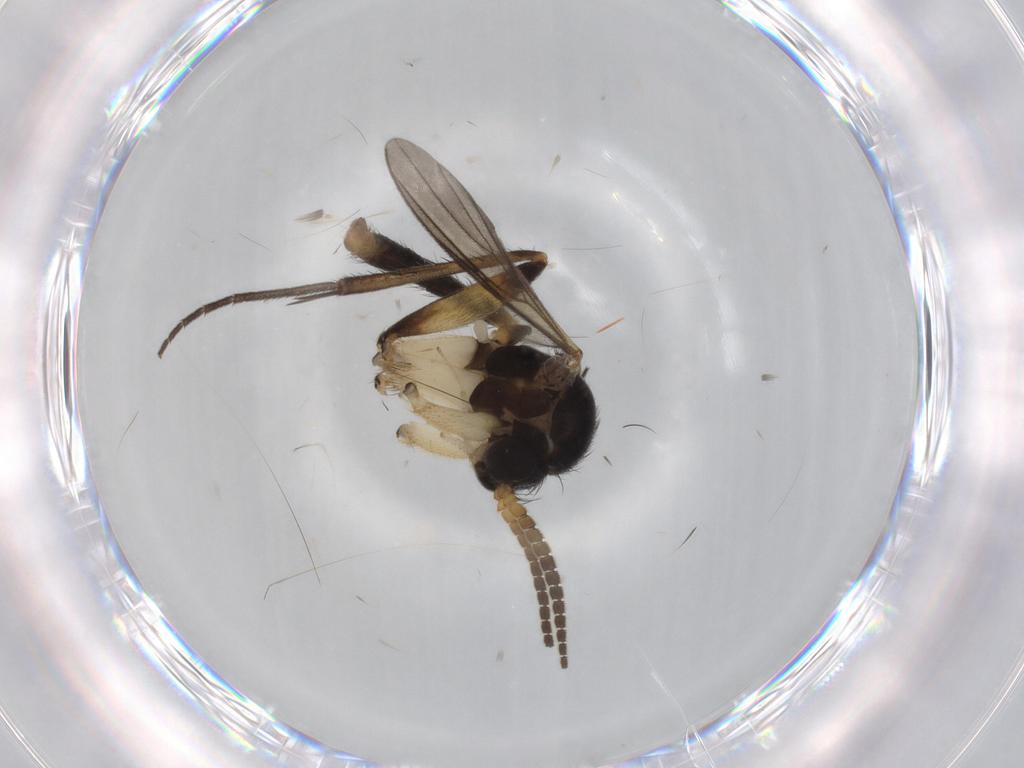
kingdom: Animalia
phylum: Arthropoda
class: Insecta
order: Diptera
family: Mycetophilidae
